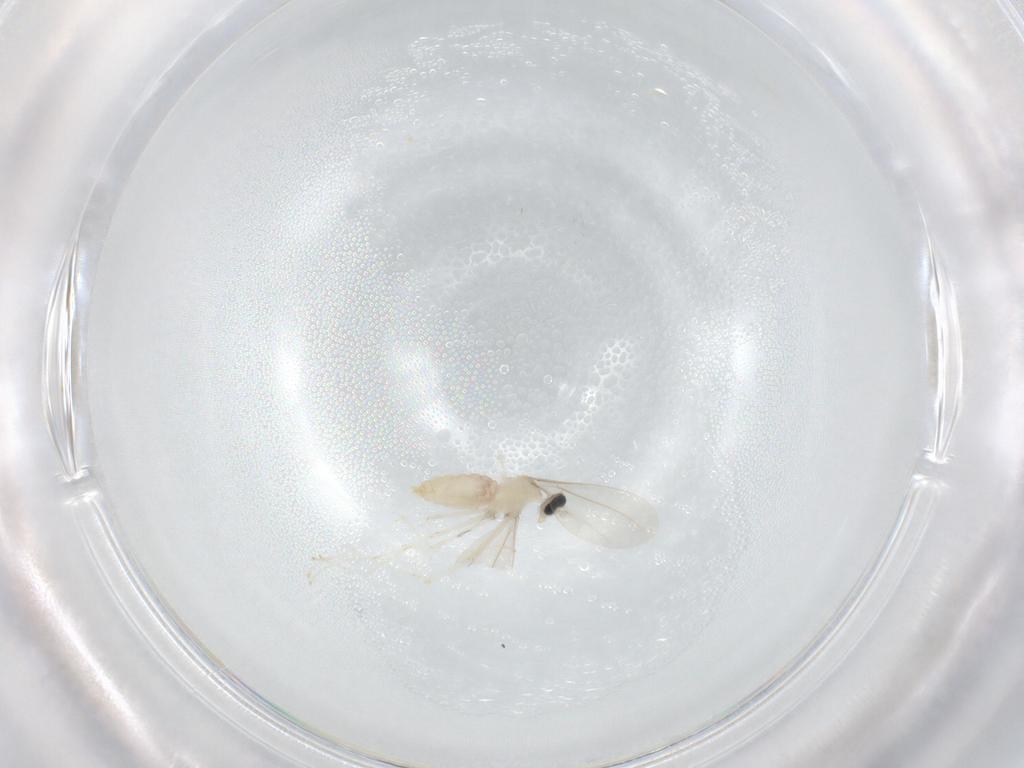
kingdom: Animalia
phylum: Arthropoda
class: Insecta
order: Diptera
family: Cecidomyiidae
